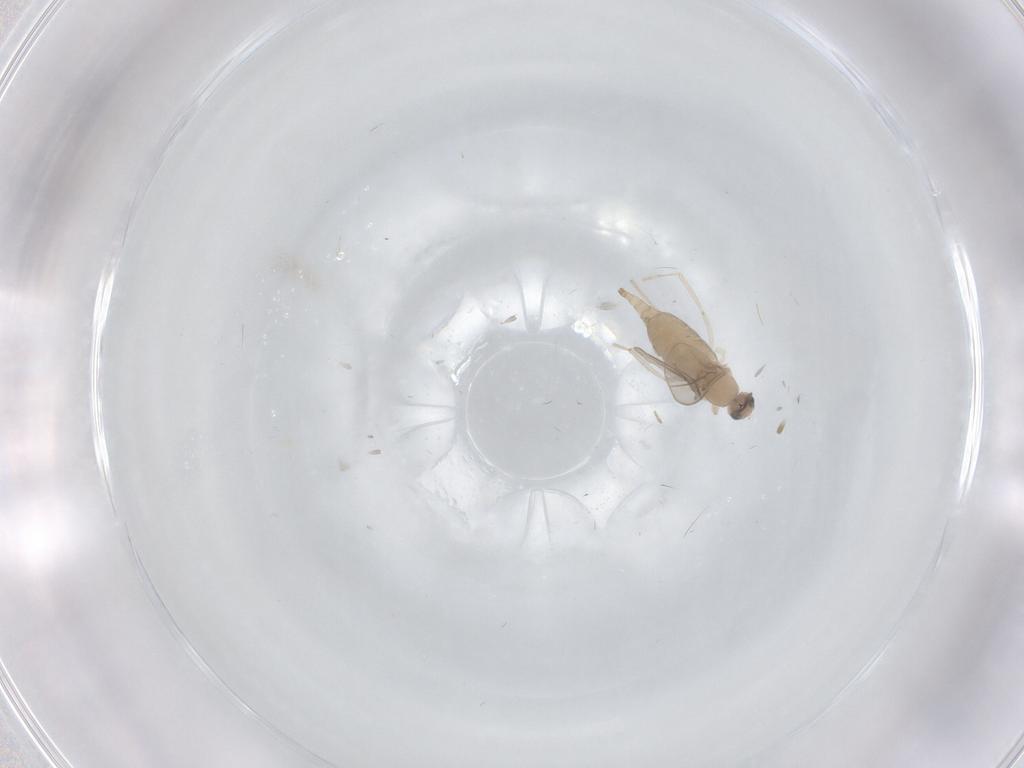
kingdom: Animalia
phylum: Arthropoda
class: Insecta
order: Diptera
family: Cecidomyiidae
